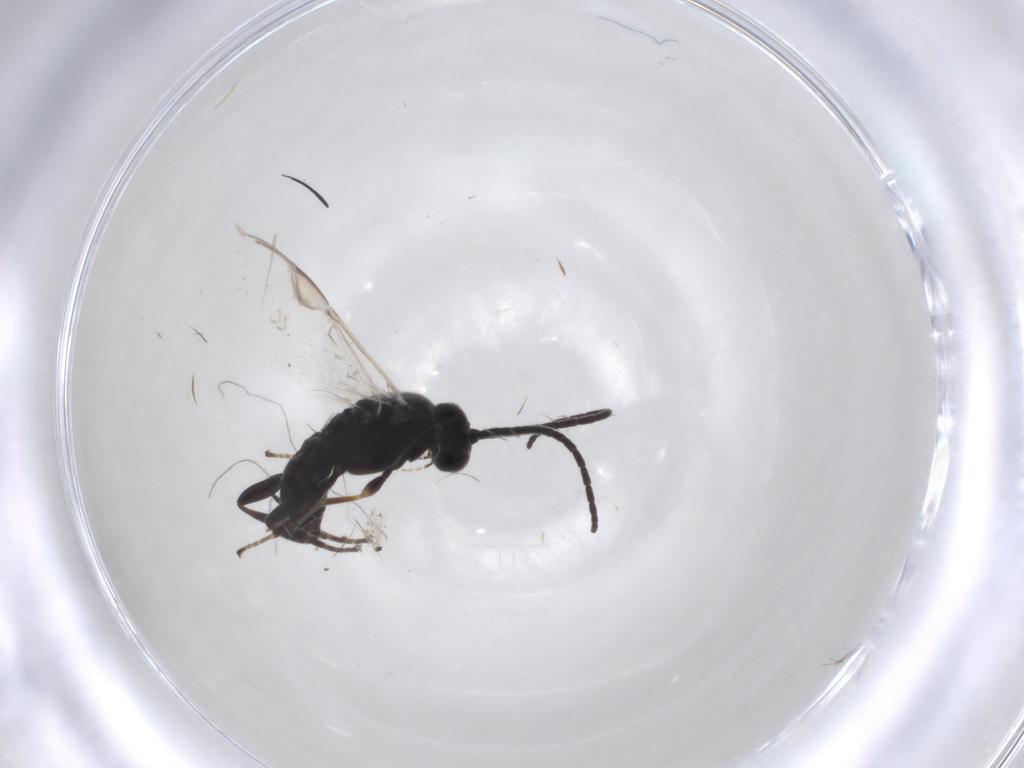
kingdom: Animalia
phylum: Arthropoda
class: Insecta
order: Hymenoptera
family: Braconidae
